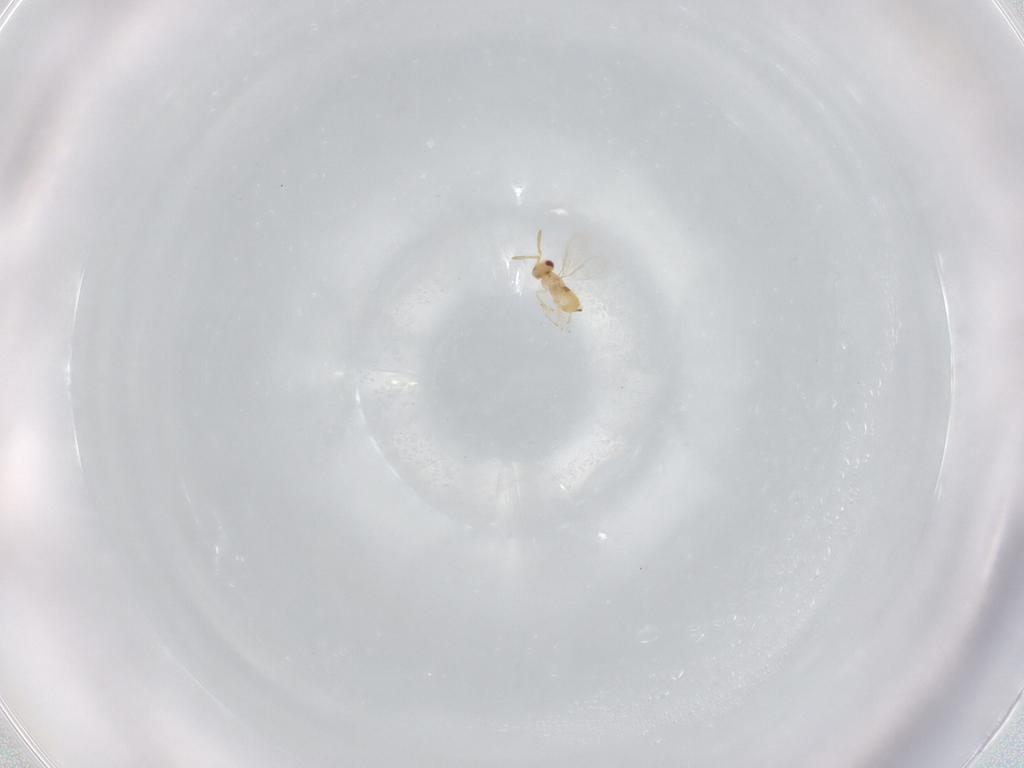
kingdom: Animalia
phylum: Arthropoda
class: Insecta
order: Hymenoptera
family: Aphelinidae
